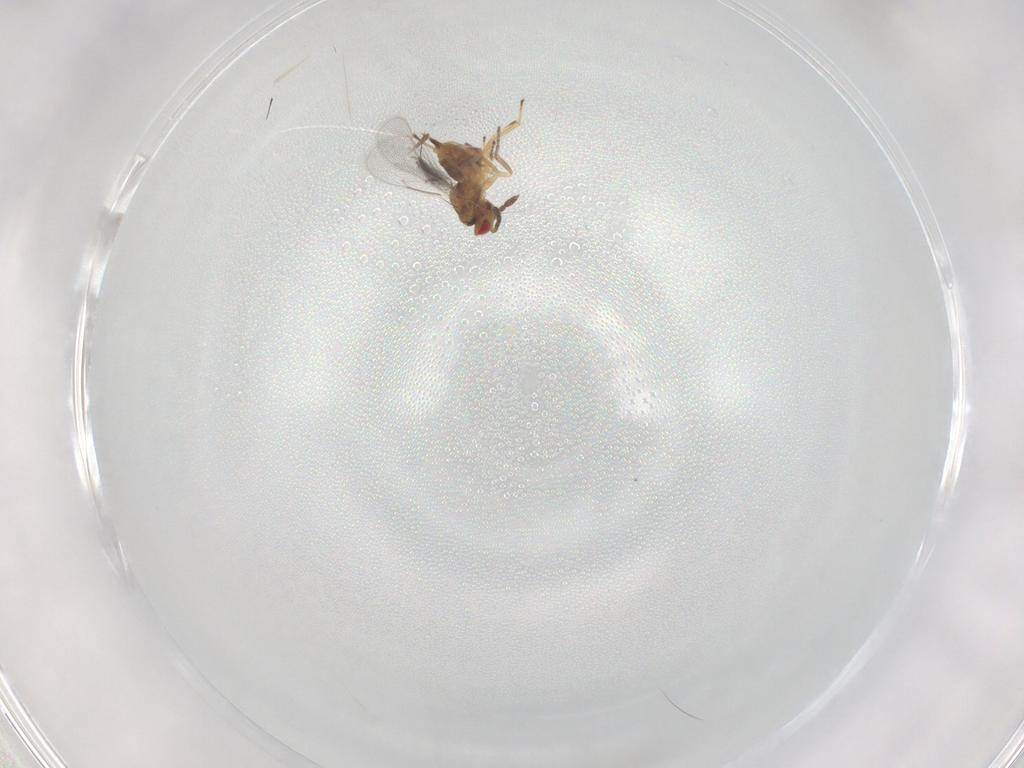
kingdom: Animalia
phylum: Arthropoda
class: Insecta
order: Hymenoptera
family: Eulophidae
